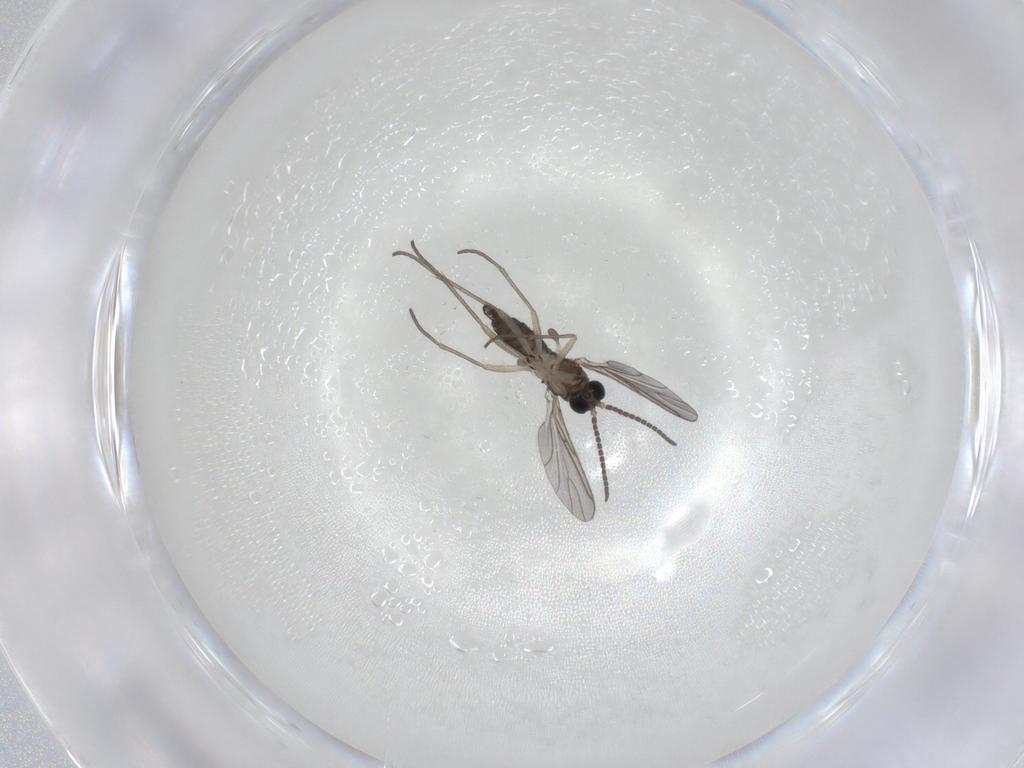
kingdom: Animalia
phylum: Arthropoda
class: Insecta
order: Diptera
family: Sciaridae
